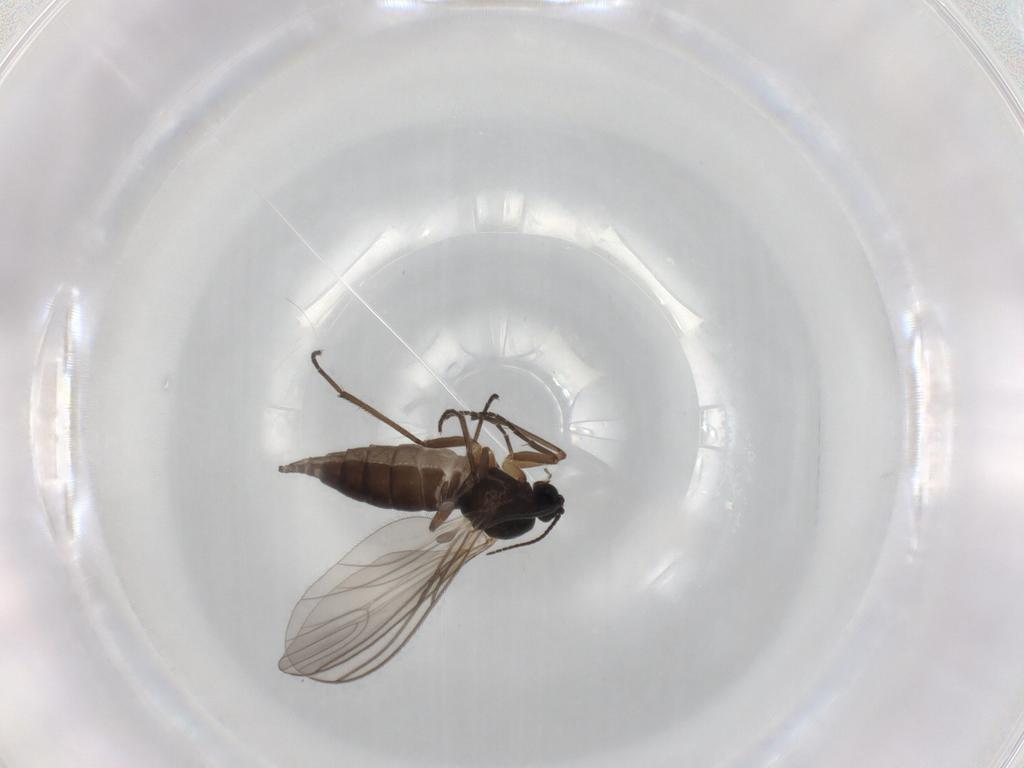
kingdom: Animalia
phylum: Arthropoda
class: Insecta
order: Diptera
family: Sciaridae
